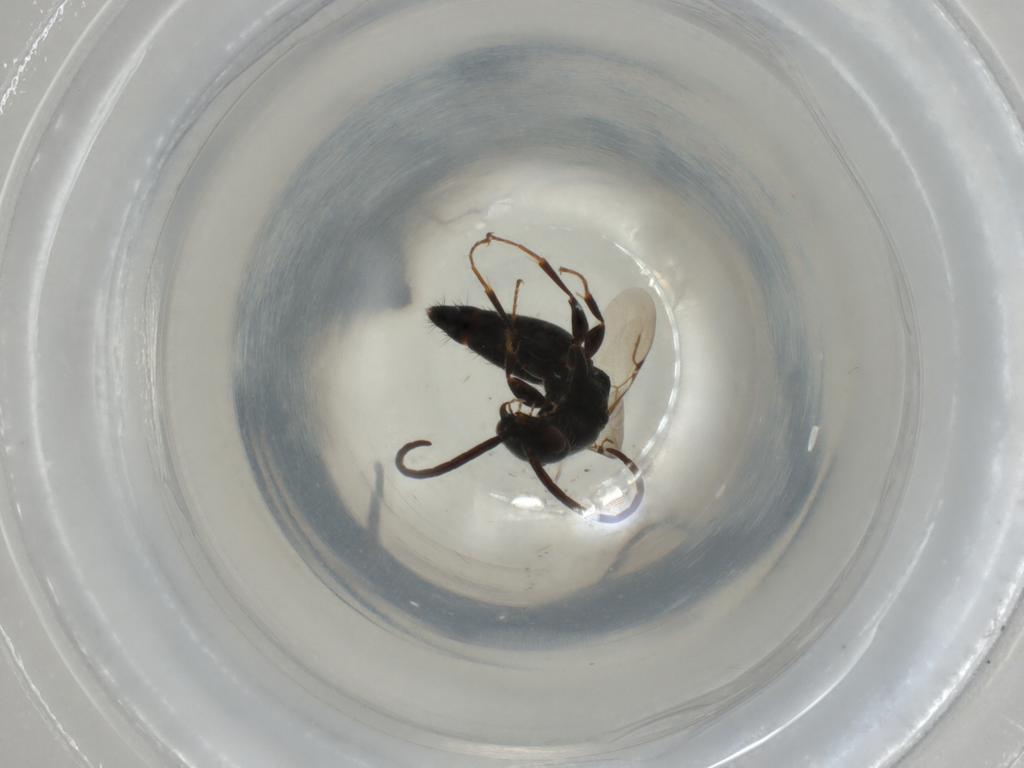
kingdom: Animalia
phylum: Arthropoda
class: Insecta
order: Hymenoptera
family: Bethylidae
